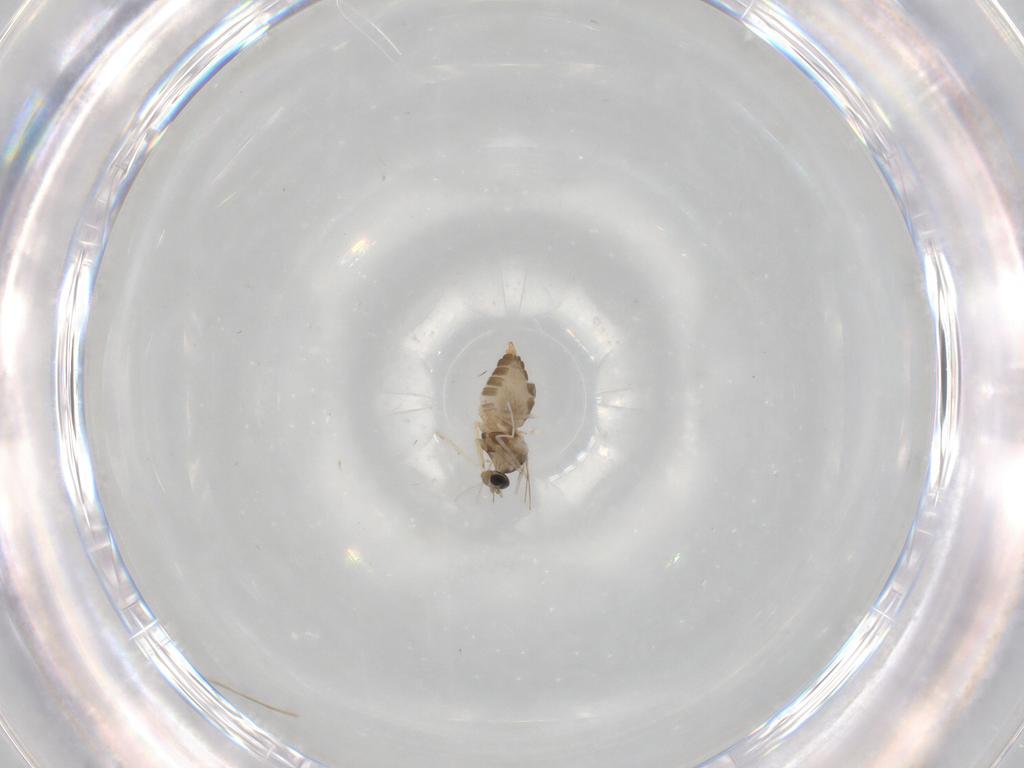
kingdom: Animalia
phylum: Arthropoda
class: Insecta
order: Diptera
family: Cecidomyiidae
